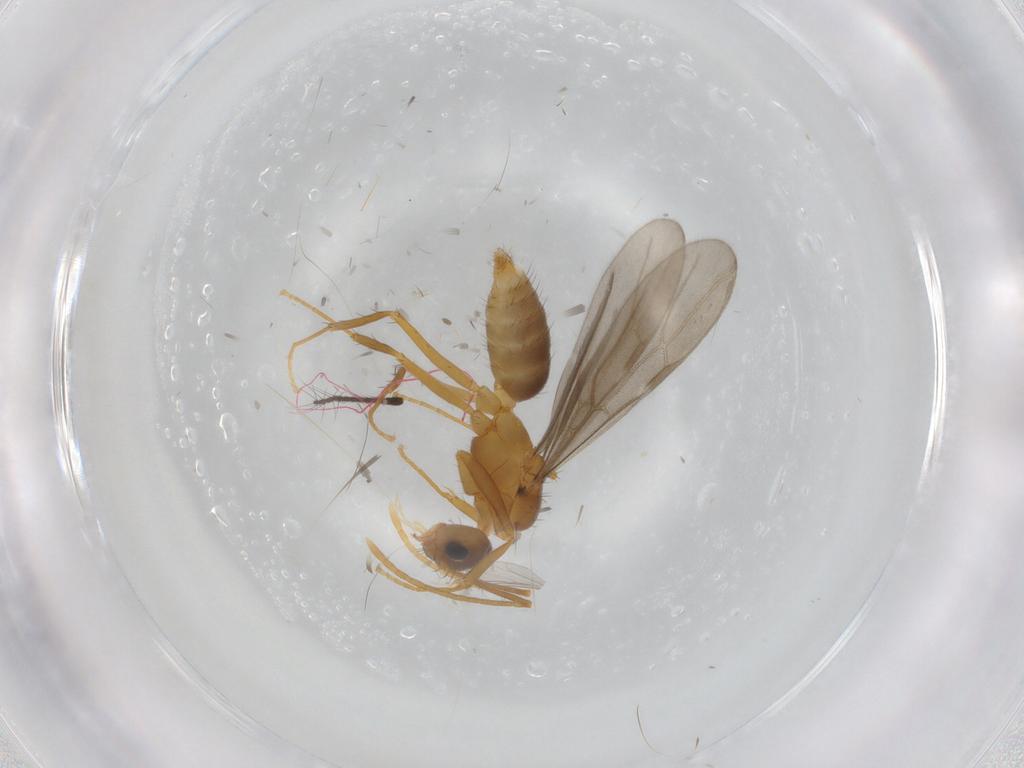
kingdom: Animalia
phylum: Arthropoda
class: Insecta
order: Hymenoptera
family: Formicidae
